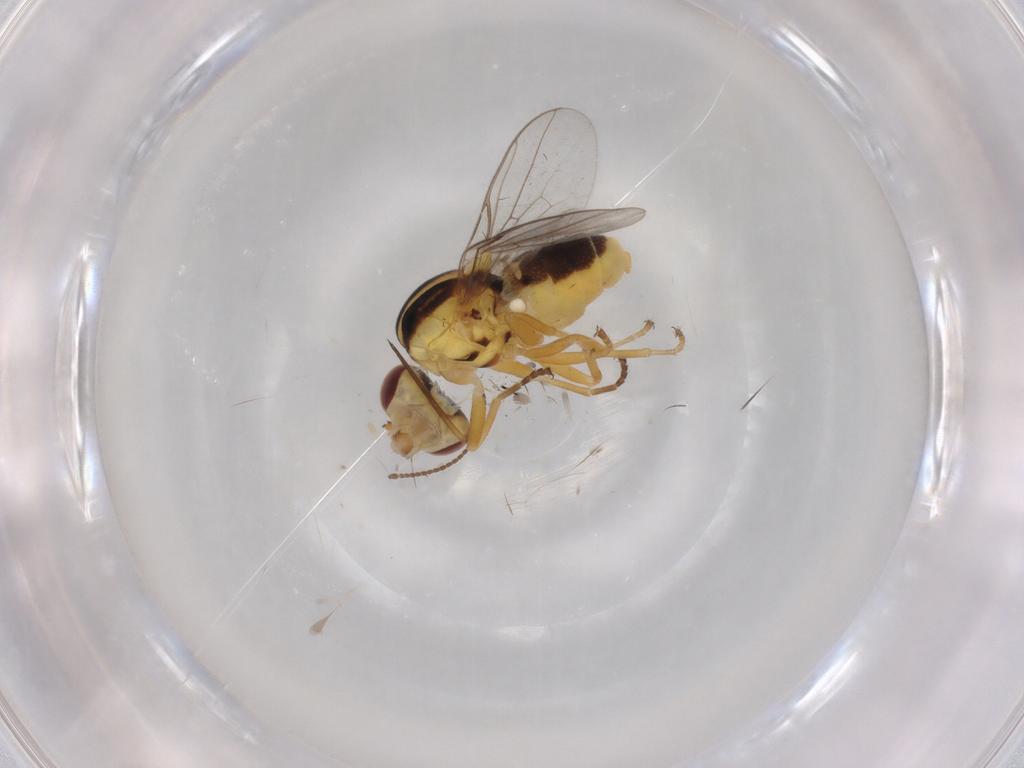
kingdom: Animalia
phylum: Arthropoda
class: Insecta
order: Diptera
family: Chloropidae
